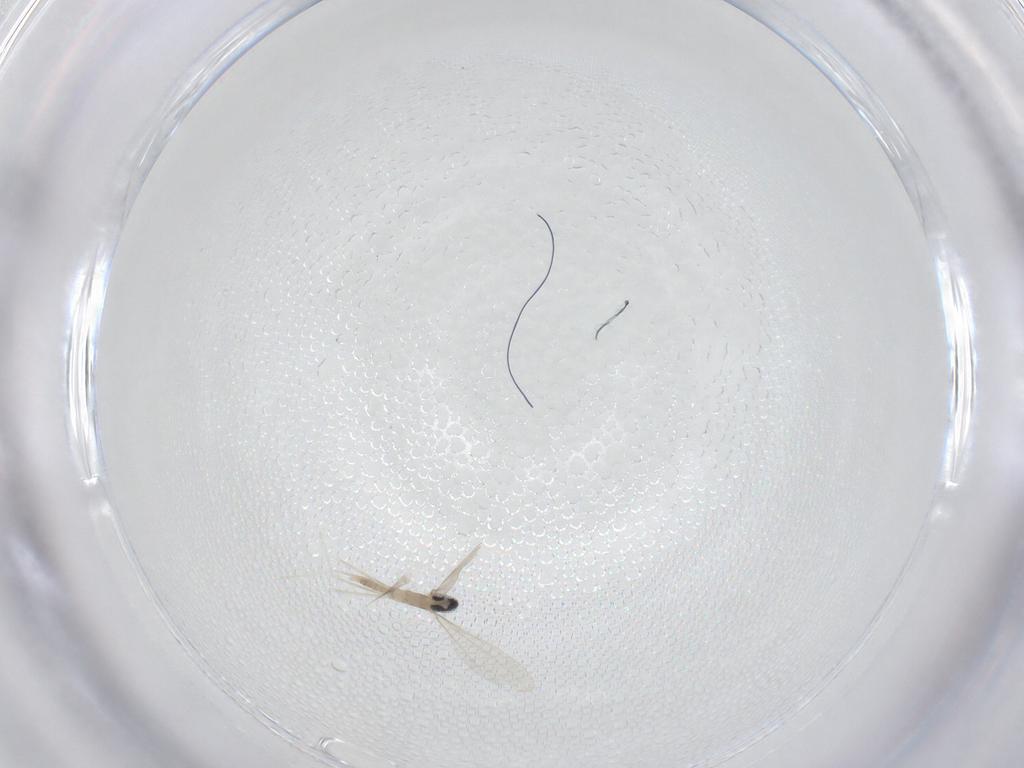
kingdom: Animalia
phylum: Arthropoda
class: Insecta
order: Diptera
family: Cecidomyiidae
